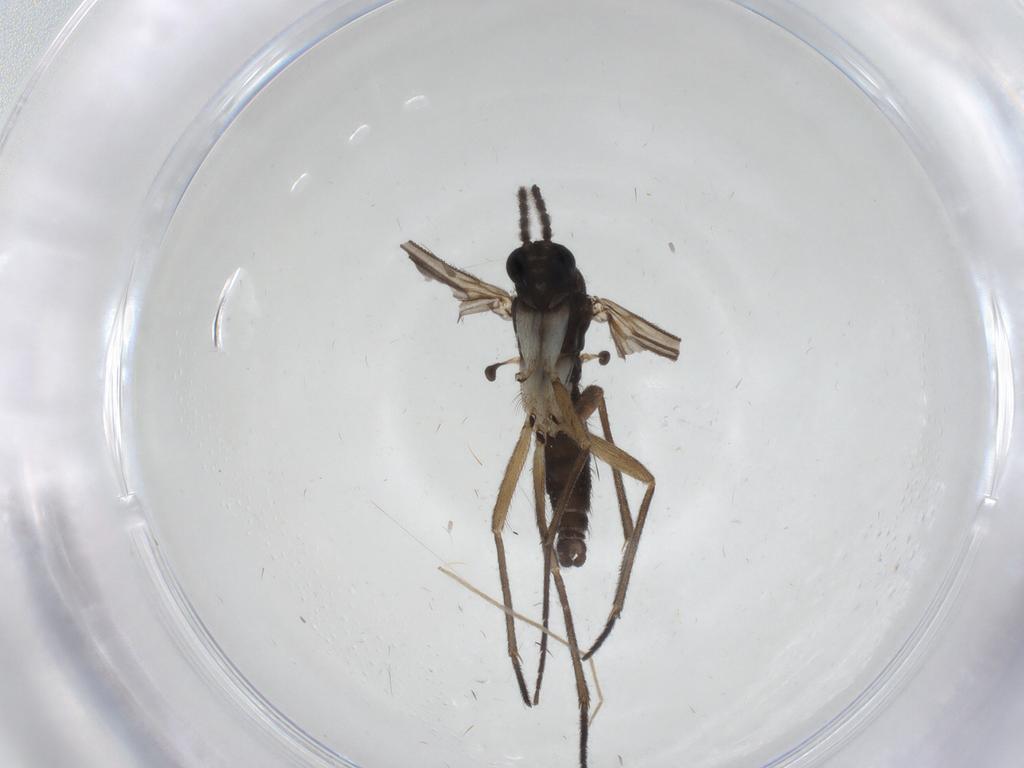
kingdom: Animalia
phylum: Arthropoda
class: Insecta
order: Diptera
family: Sciaridae
